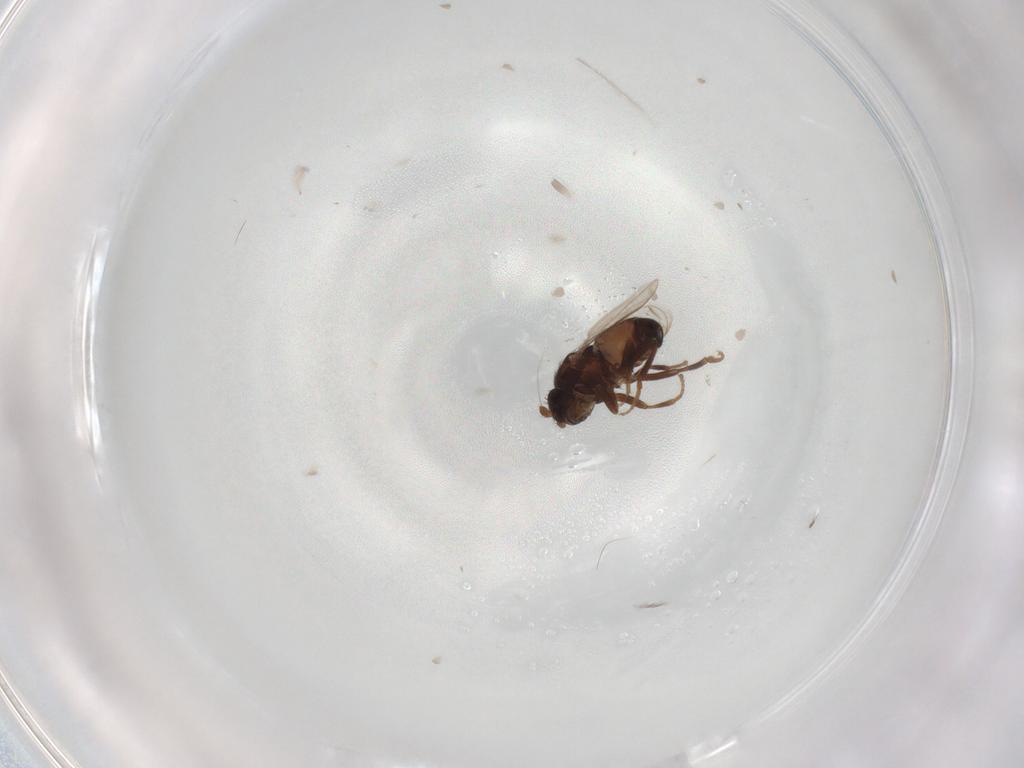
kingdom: Animalia
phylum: Arthropoda
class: Insecta
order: Diptera
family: Sphaeroceridae
